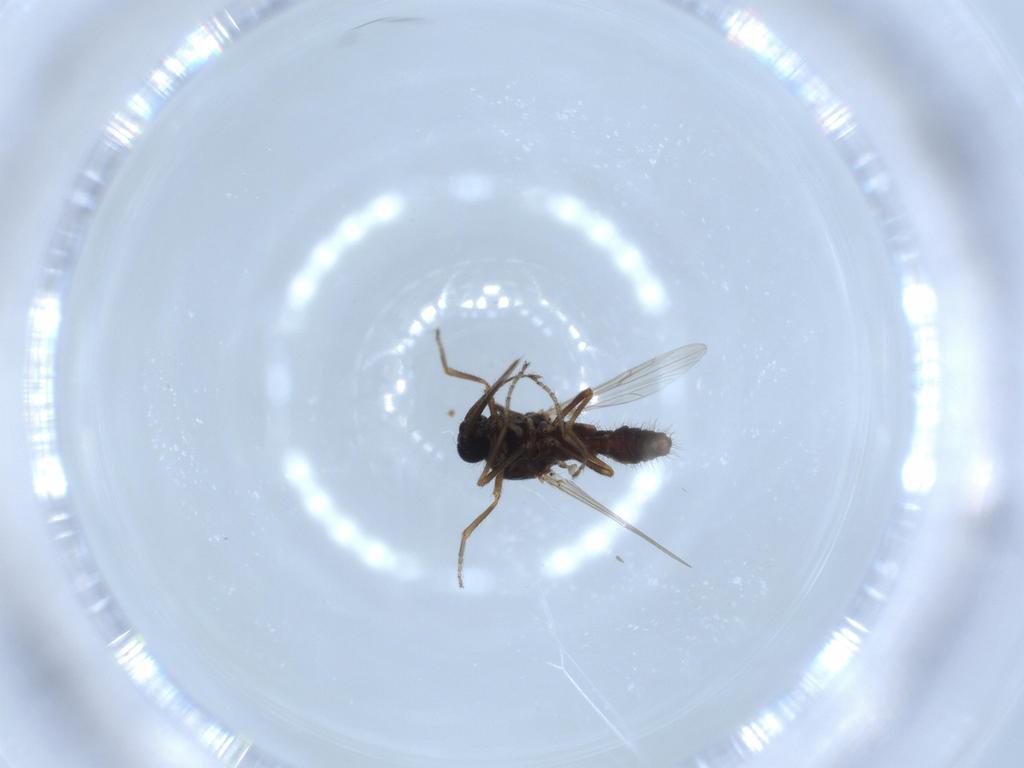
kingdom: Animalia
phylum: Arthropoda
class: Insecta
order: Diptera
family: Ceratopogonidae
